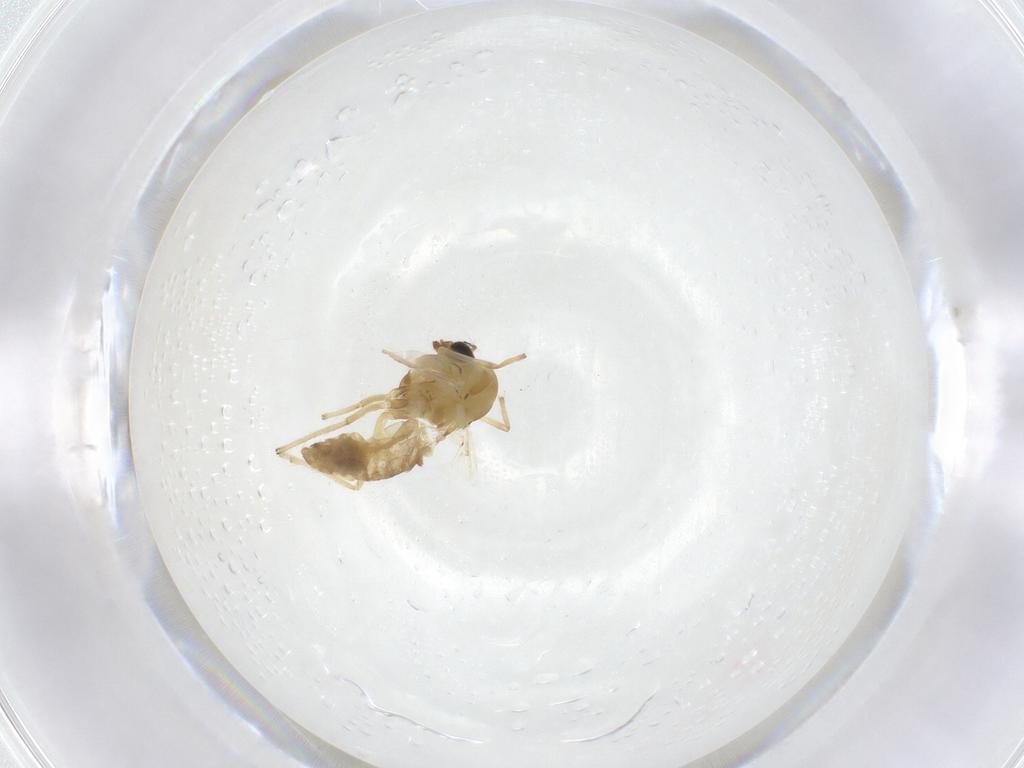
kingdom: Animalia
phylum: Arthropoda
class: Insecta
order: Diptera
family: Chironomidae
